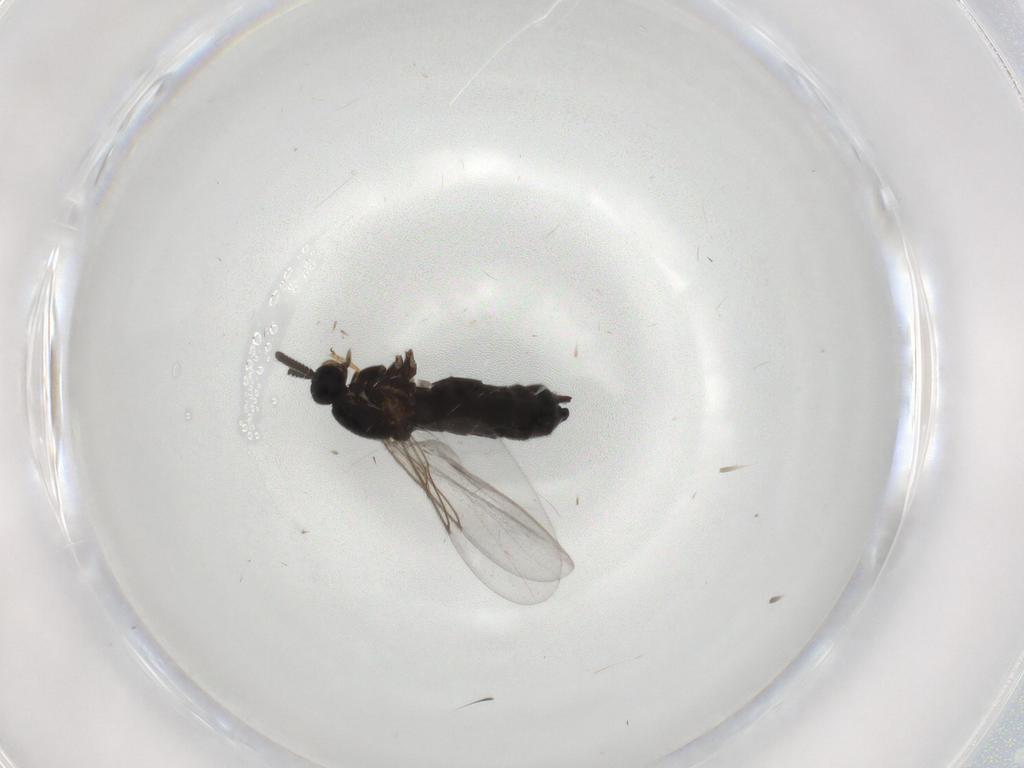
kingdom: Animalia
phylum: Arthropoda
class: Insecta
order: Diptera
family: Scatopsidae
